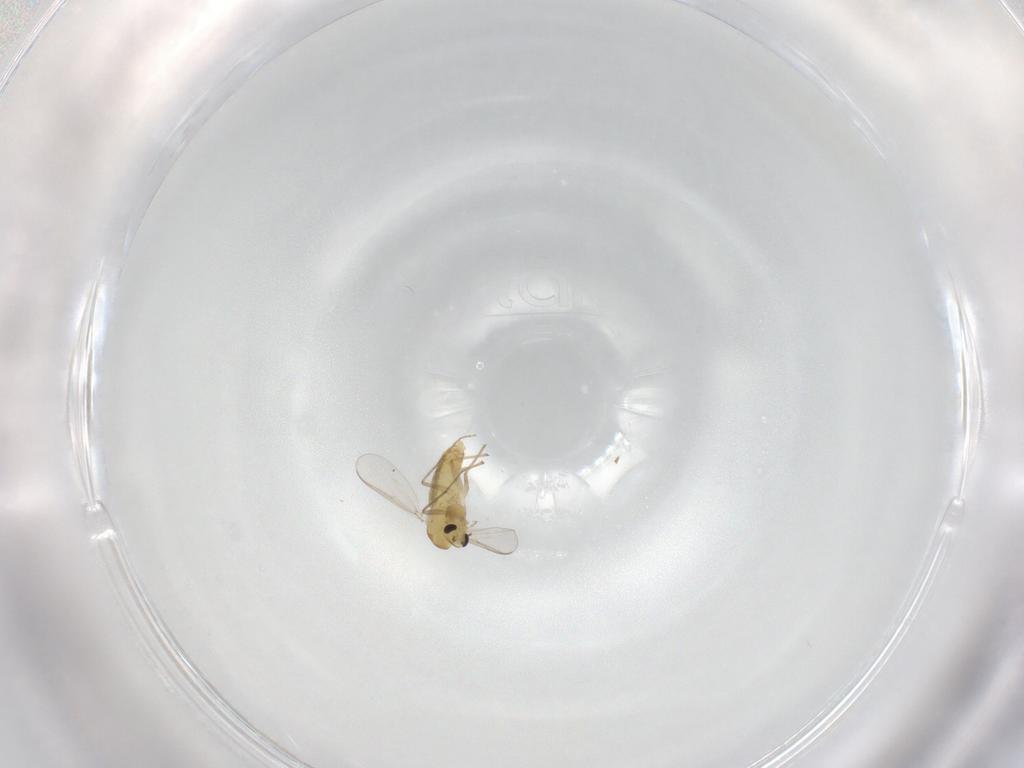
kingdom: Animalia
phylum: Arthropoda
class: Insecta
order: Diptera
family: Chironomidae
